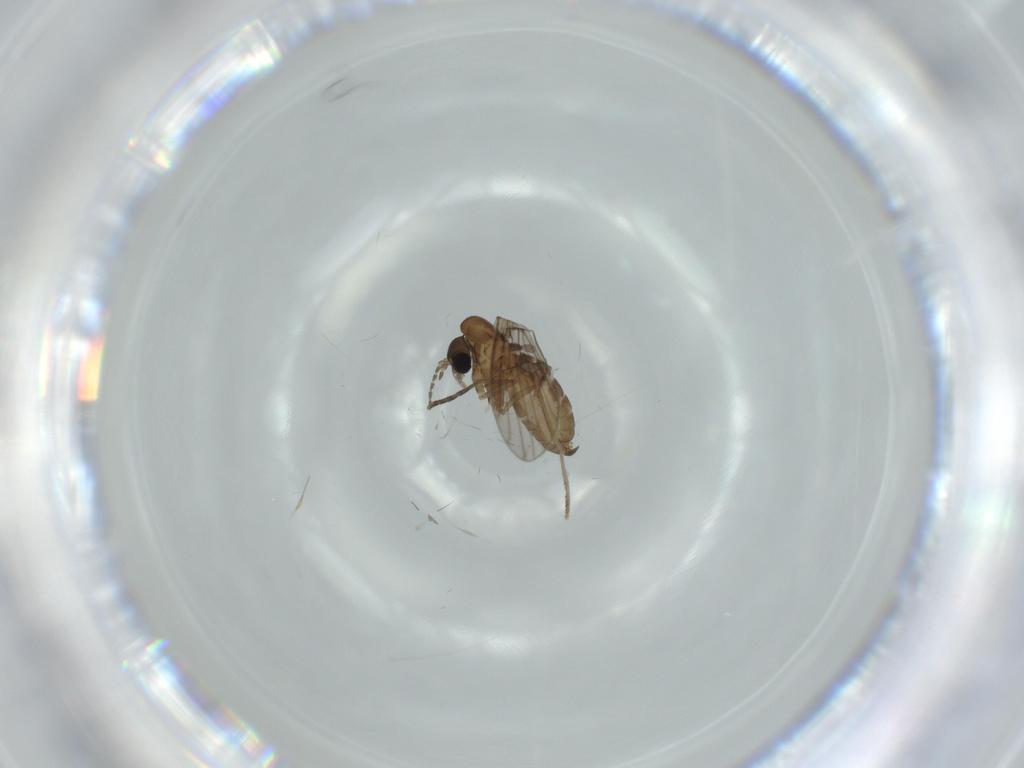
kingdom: Animalia
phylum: Arthropoda
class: Insecta
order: Diptera
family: Psychodidae
